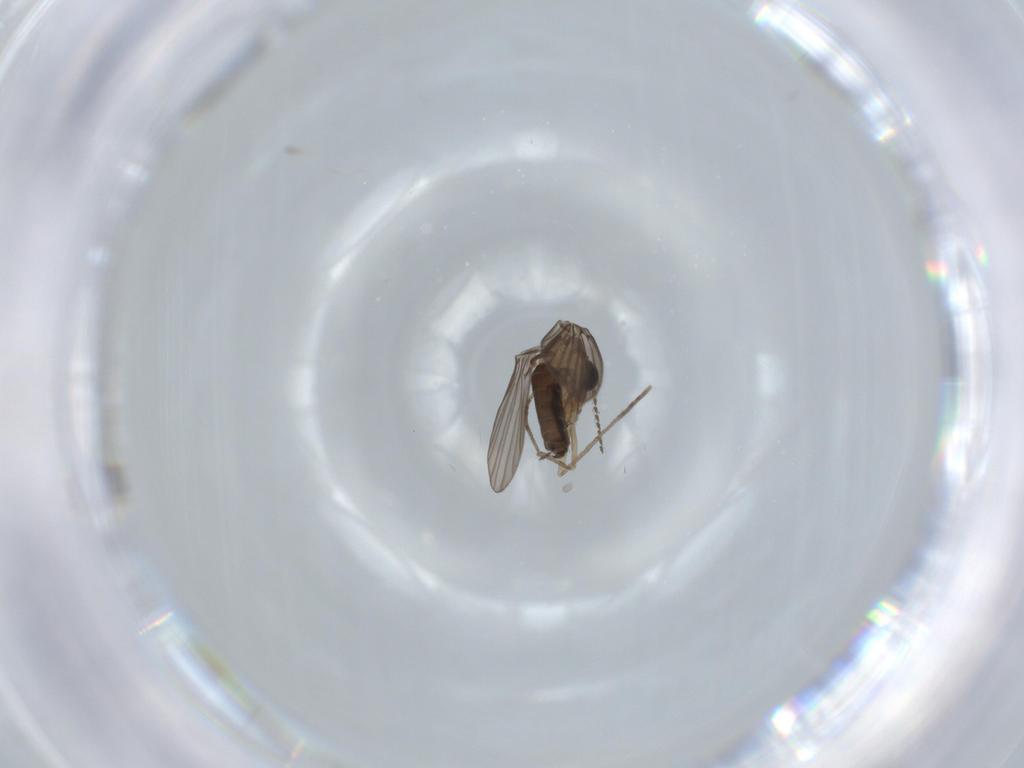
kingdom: Animalia
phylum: Arthropoda
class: Insecta
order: Diptera
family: Psychodidae
